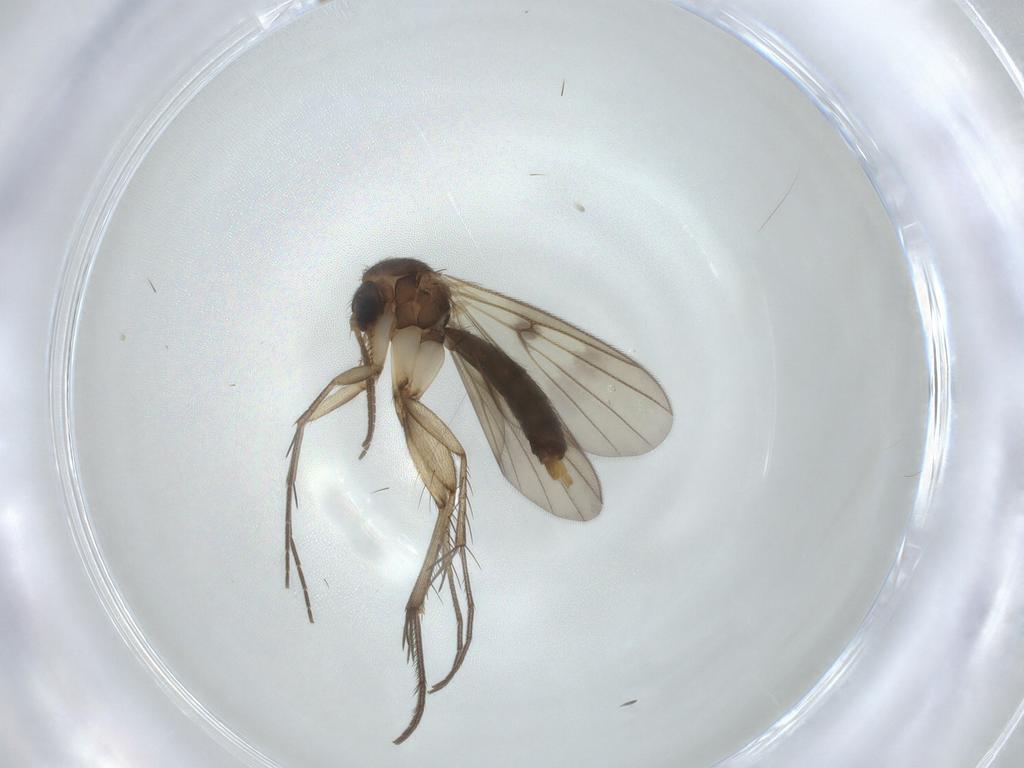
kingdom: Animalia
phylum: Arthropoda
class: Insecta
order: Diptera
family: Mycetophilidae
